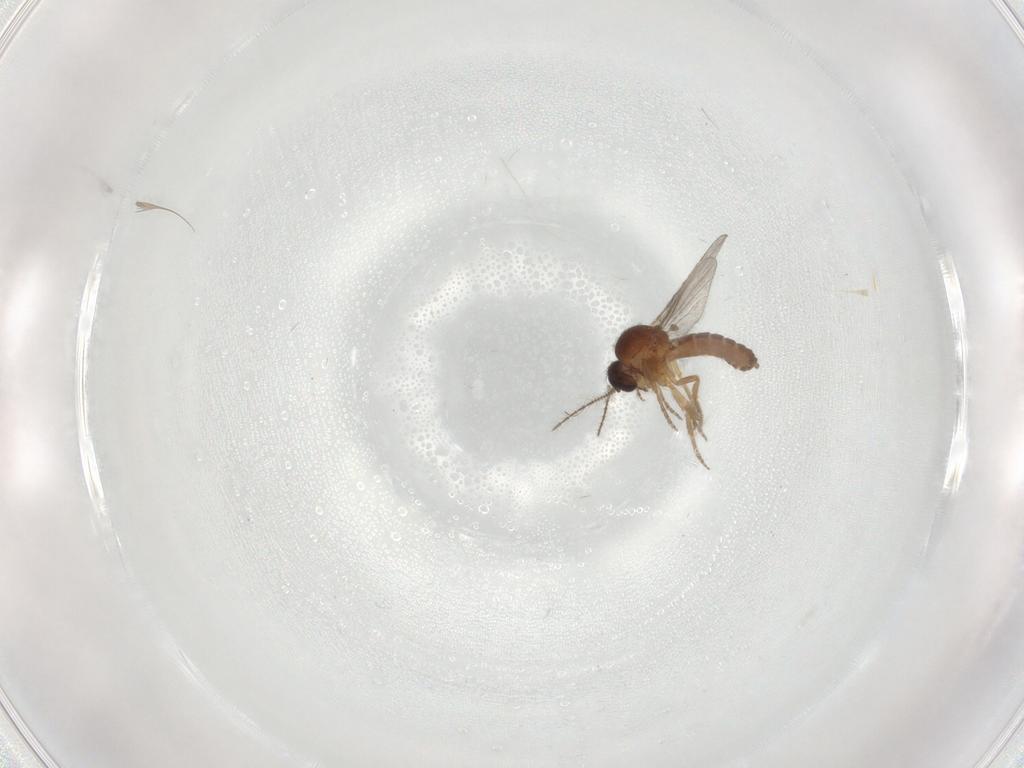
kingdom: Animalia
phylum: Arthropoda
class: Insecta
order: Diptera
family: Ceratopogonidae
